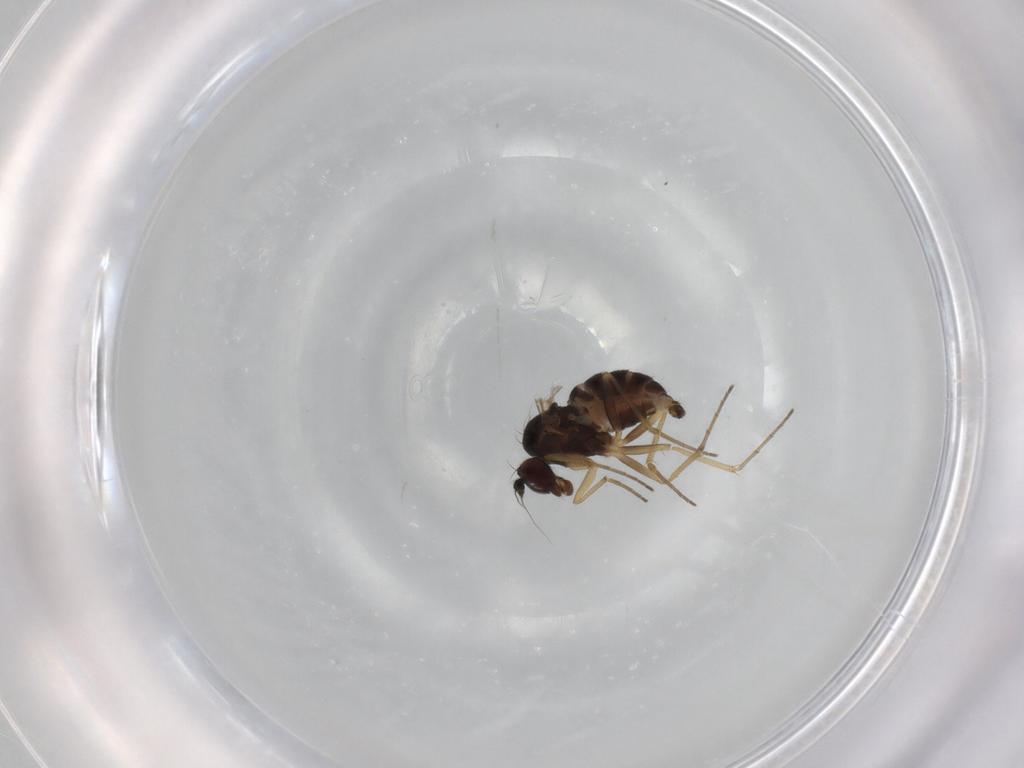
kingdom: Animalia
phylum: Arthropoda
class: Insecta
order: Diptera
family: Dolichopodidae
